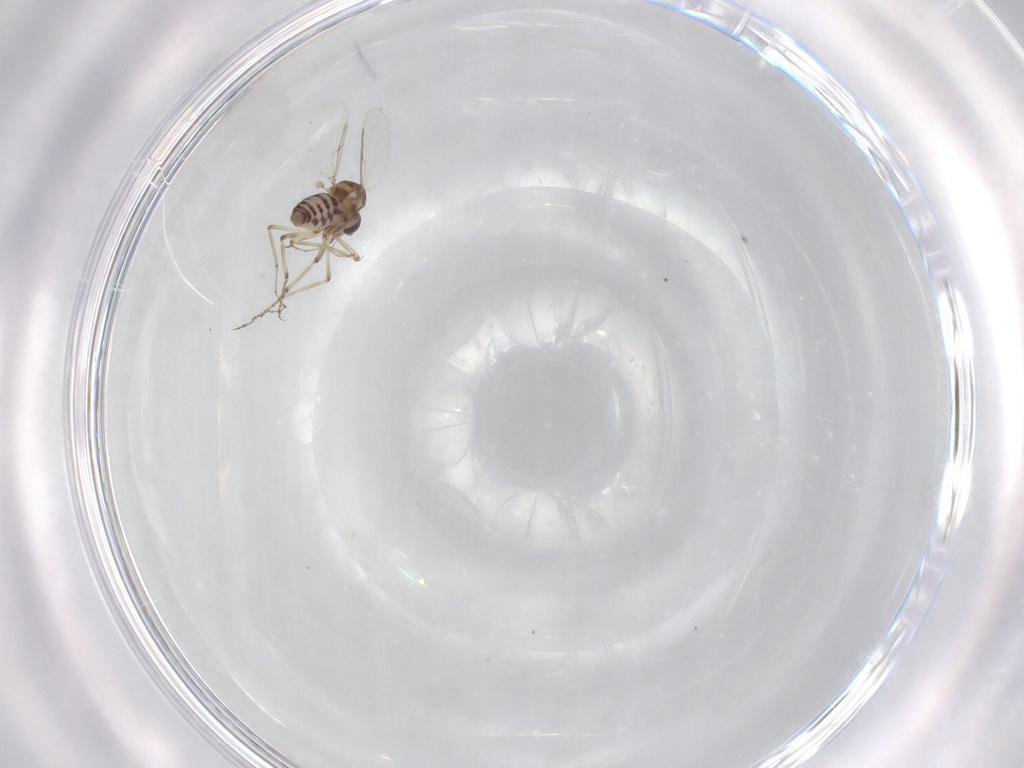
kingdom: Animalia
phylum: Arthropoda
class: Insecta
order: Diptera
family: Ceratopogonidae
